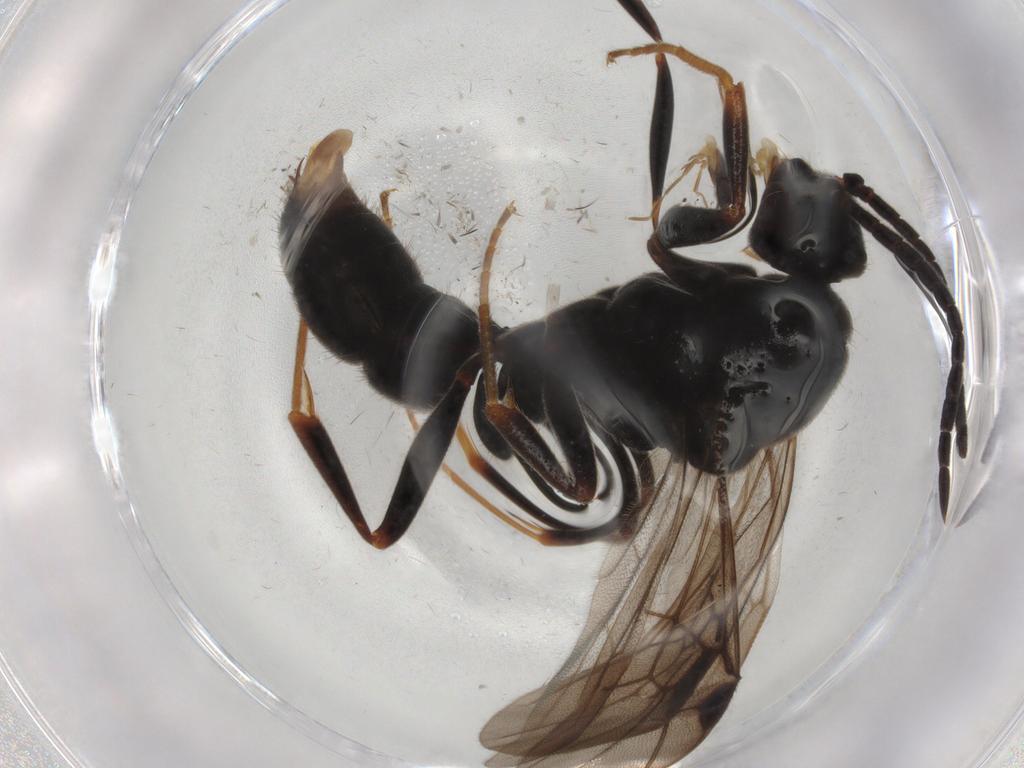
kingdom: Animalia
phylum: Arthropoda
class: Insecta
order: Hymenoptera
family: Formicidae
